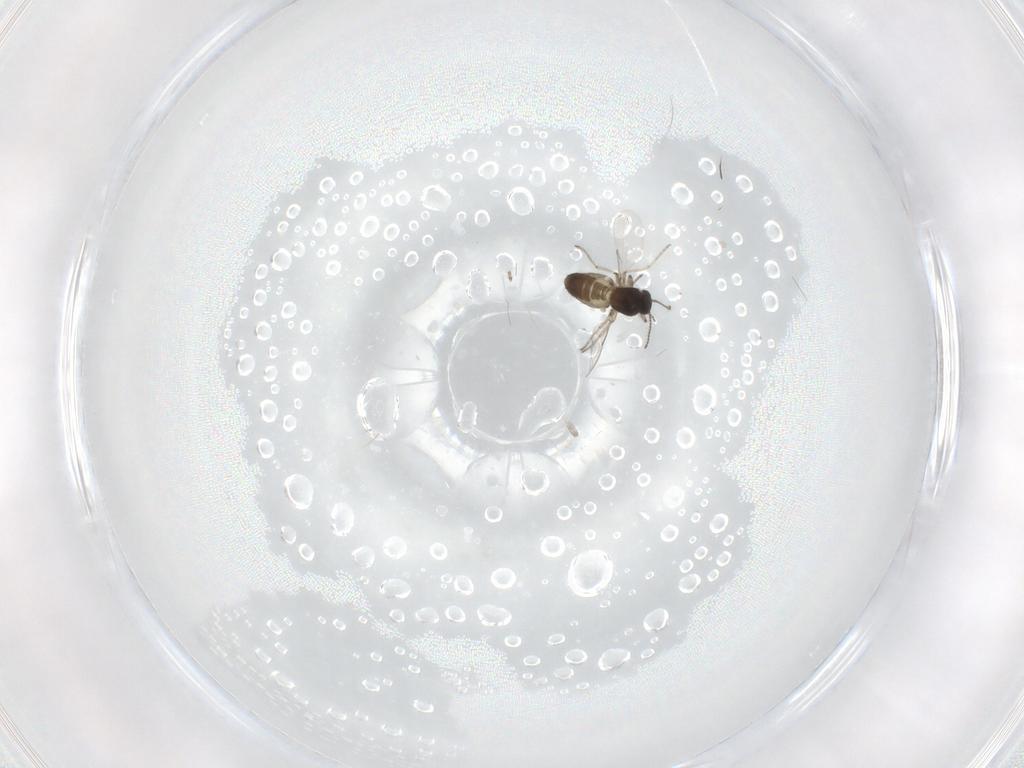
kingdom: Animalia
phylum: Arthropoda
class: Insecta
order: Diptera
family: Ceratopogonidae
